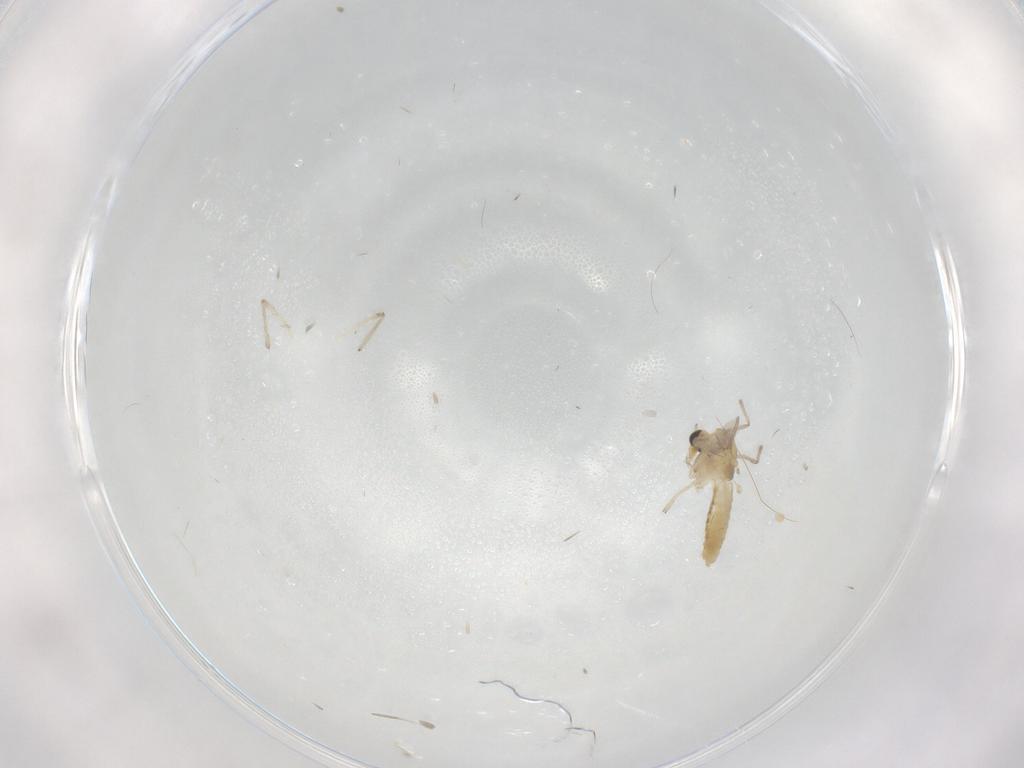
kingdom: Animalia
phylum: Arthropoda
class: Insecta
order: Diptera
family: Chironomidae
